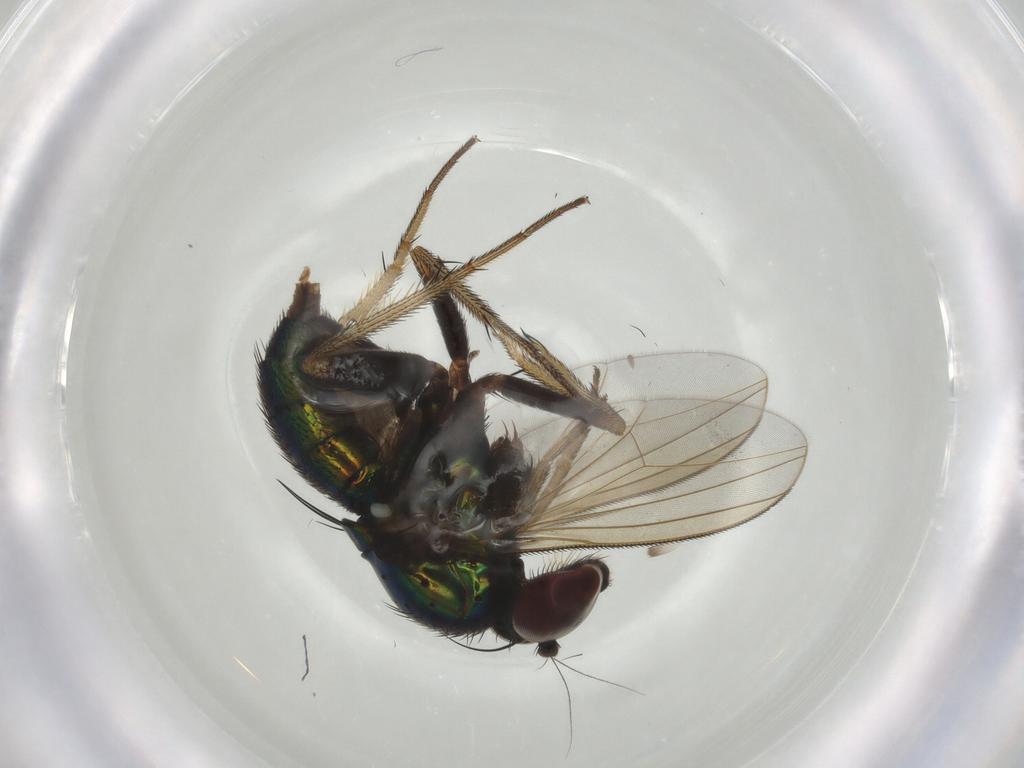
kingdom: Animalia
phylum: Arthropoda
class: Insecta
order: Diptera
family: Dolichopodidae
